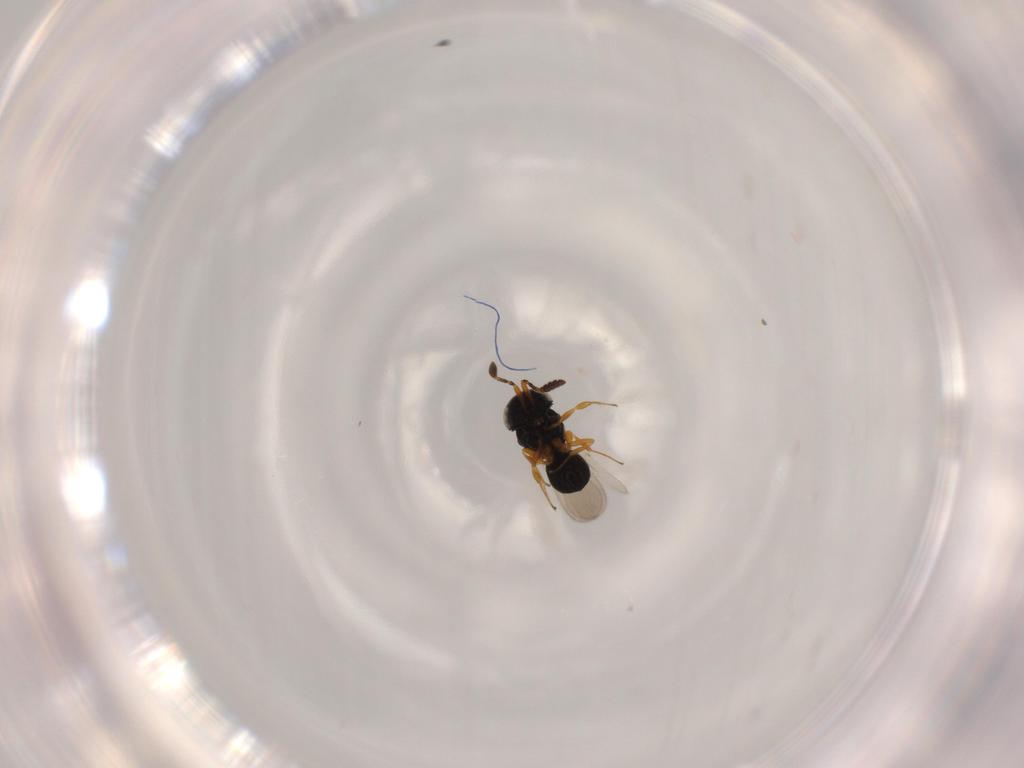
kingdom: Animalia
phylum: Arthropoda
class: Insecta
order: Hymenoptera
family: Scelionidae
